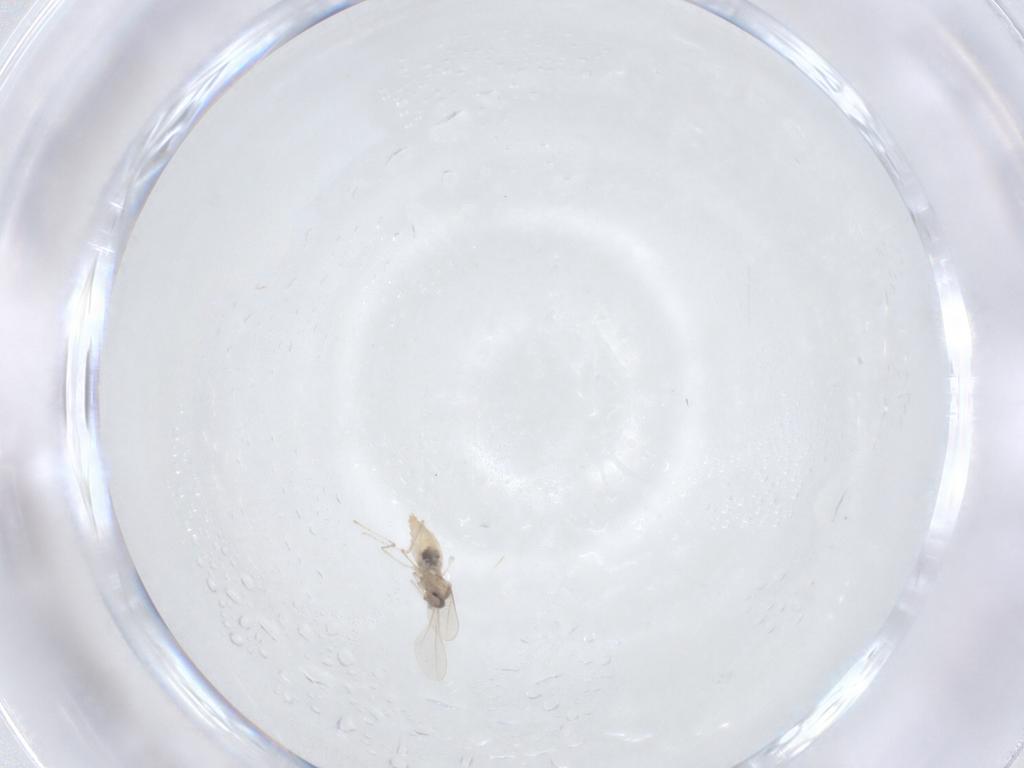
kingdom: Animalia
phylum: Arthropoda
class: Insecta
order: Diptera
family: Cecidomyiidae
